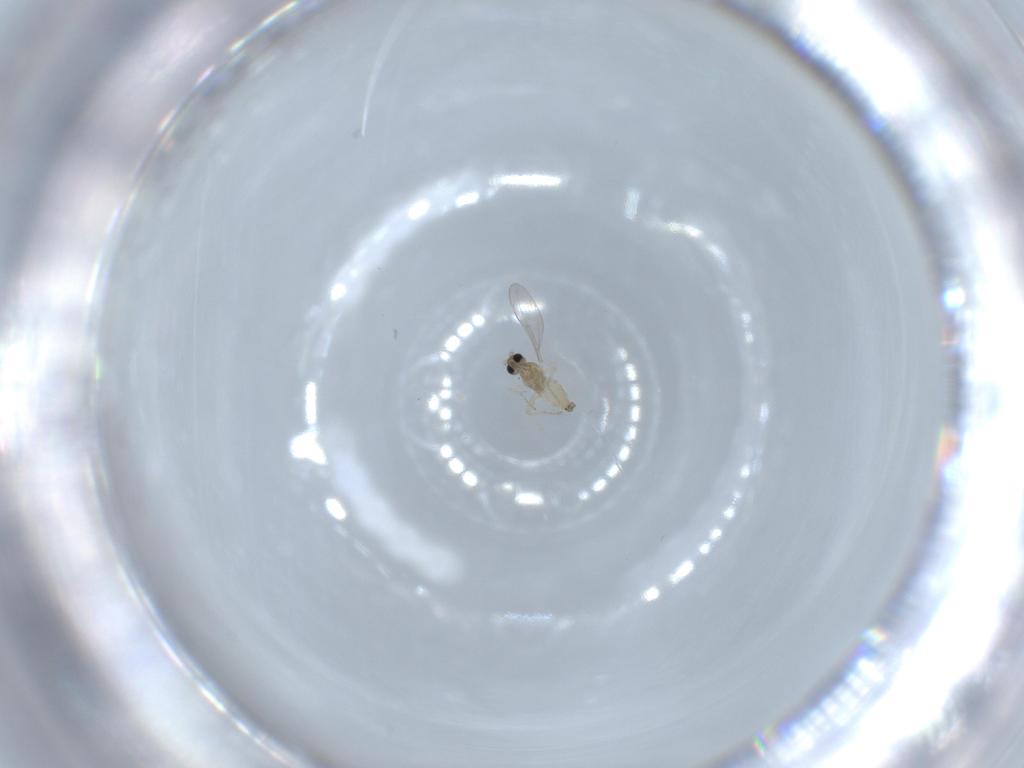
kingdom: Animalia
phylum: Arthropoda
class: Insecta
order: Diptera
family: Cecidomyiidae
